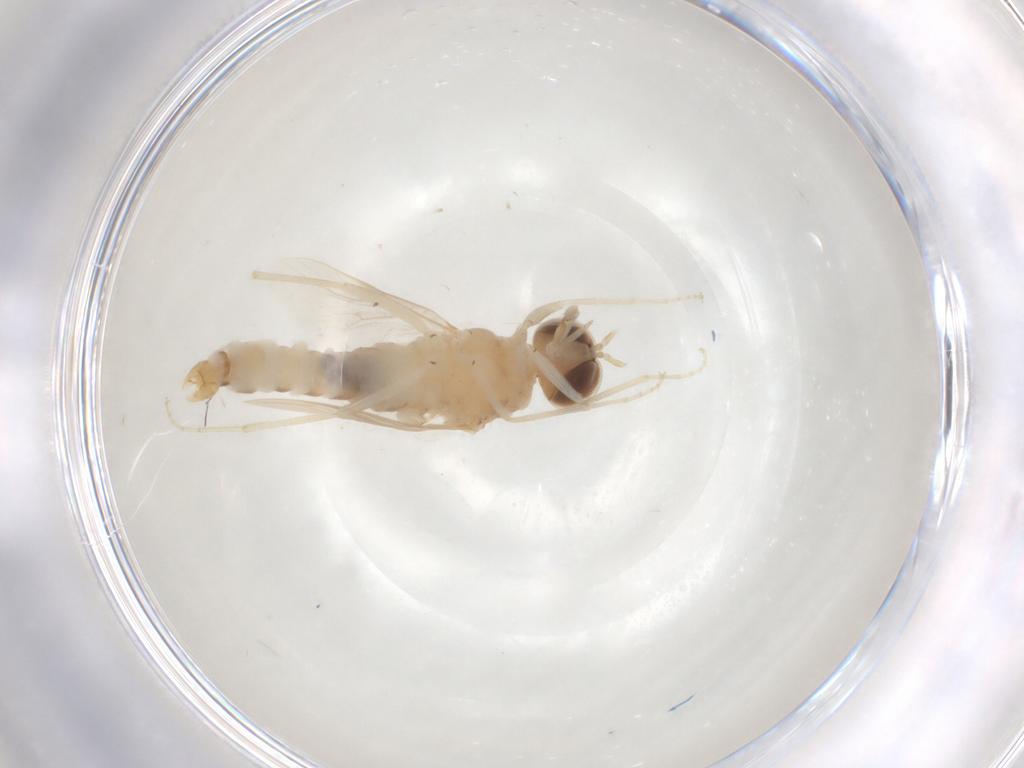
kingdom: Animalia
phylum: Arthropoda
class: Insecta
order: Diptera
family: Scenopinidae
